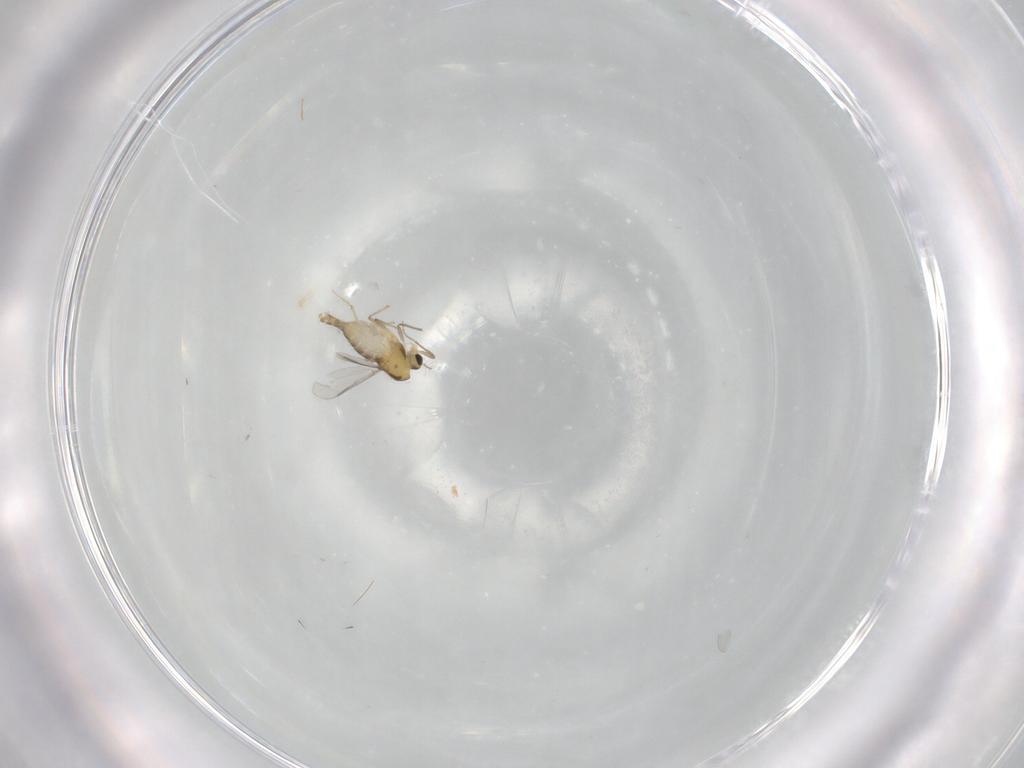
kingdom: Animalia
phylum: Arthropoda
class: Insecta
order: Diptera
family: Chironomidae
